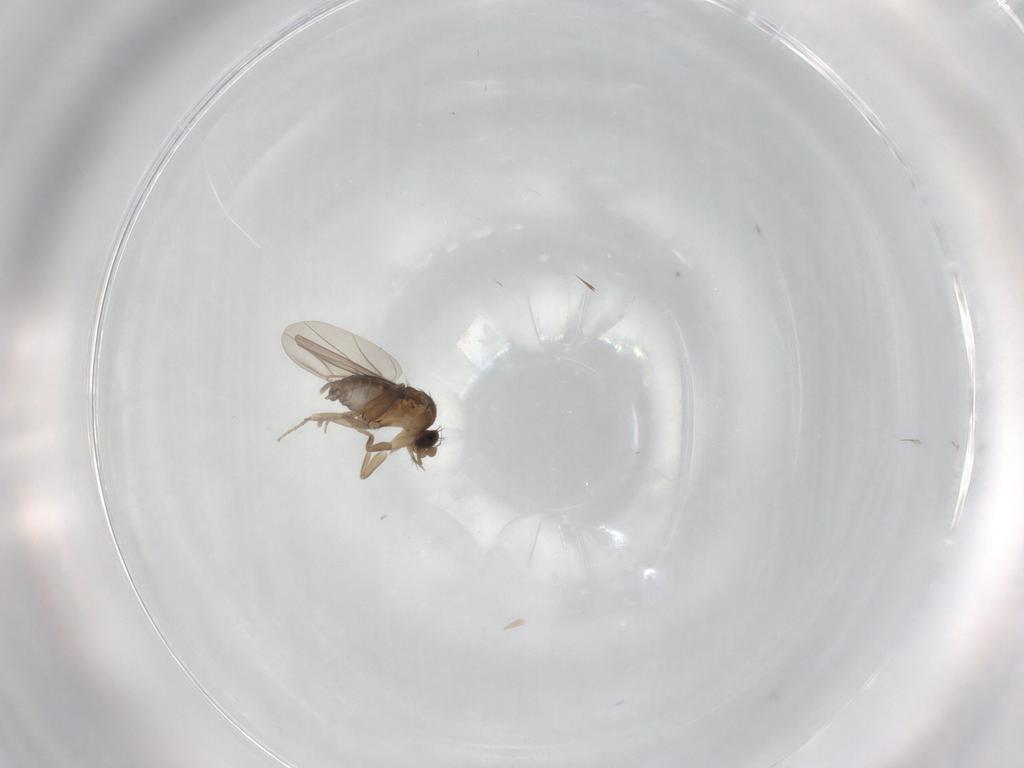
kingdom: Animalia
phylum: Arthropoda
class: Insecta
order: Diptera
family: Phoridae
